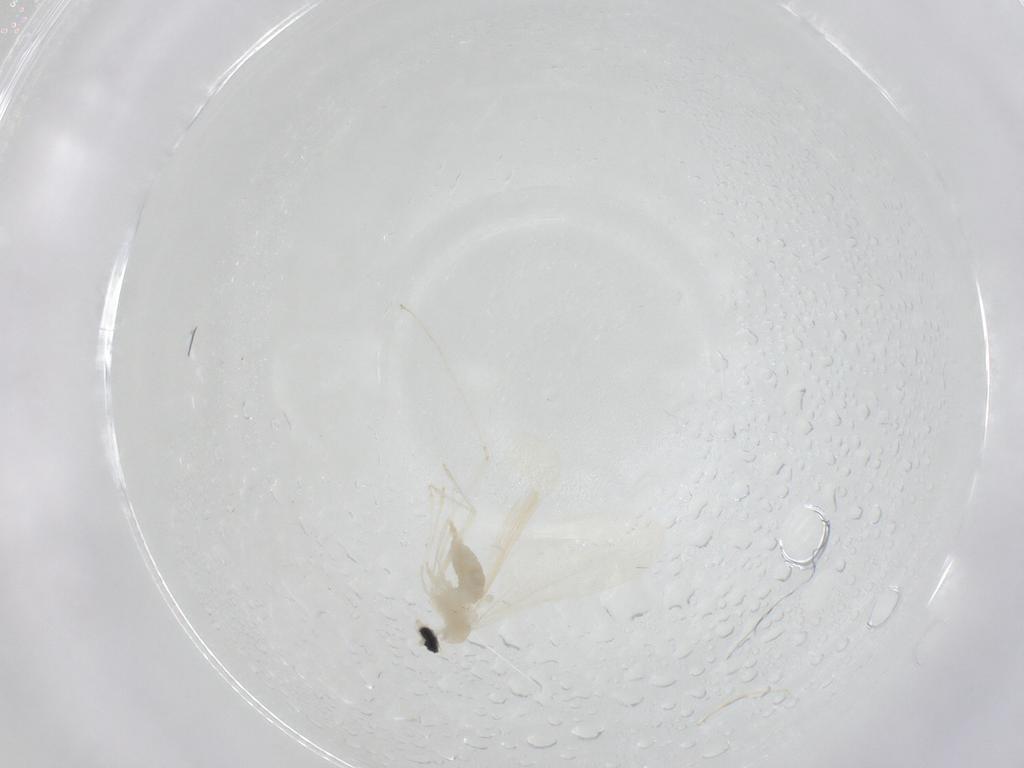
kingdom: Animalia
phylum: Arthropoda
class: Insecta
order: Diptera
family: Cecidomyiidae
